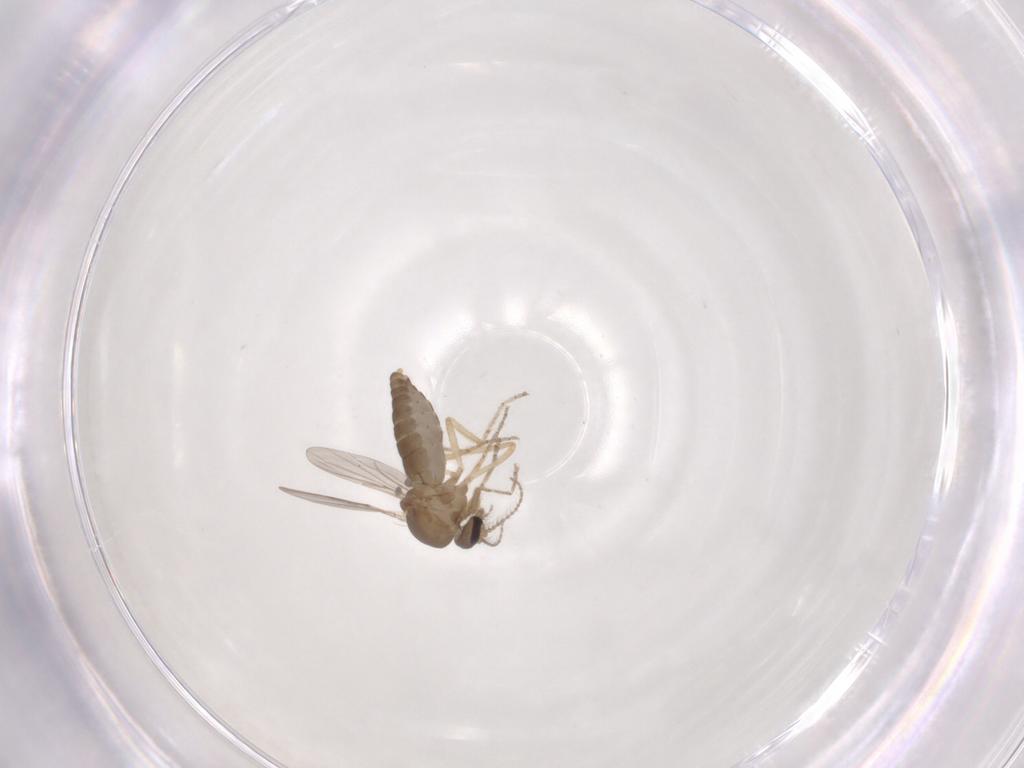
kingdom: Animalia
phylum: Arthropoda
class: Insecta
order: Diptera
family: Ceratopogonidae
